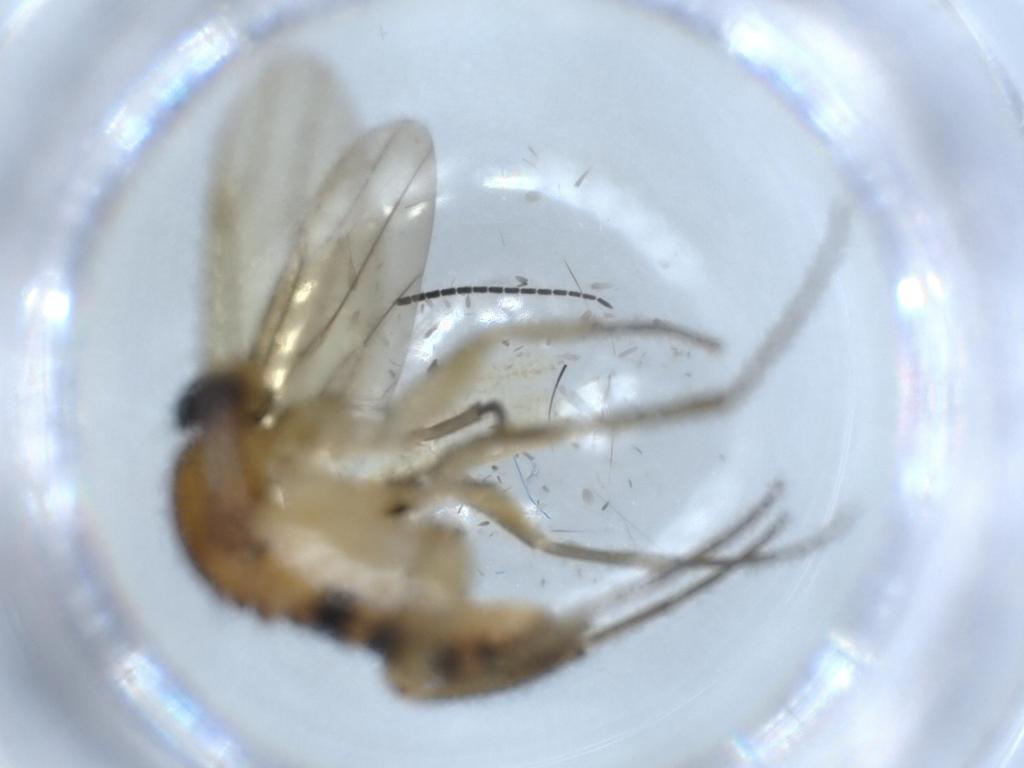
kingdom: Animalia
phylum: Arthropoda
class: Insecta
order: Diptera
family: Sciaridae
